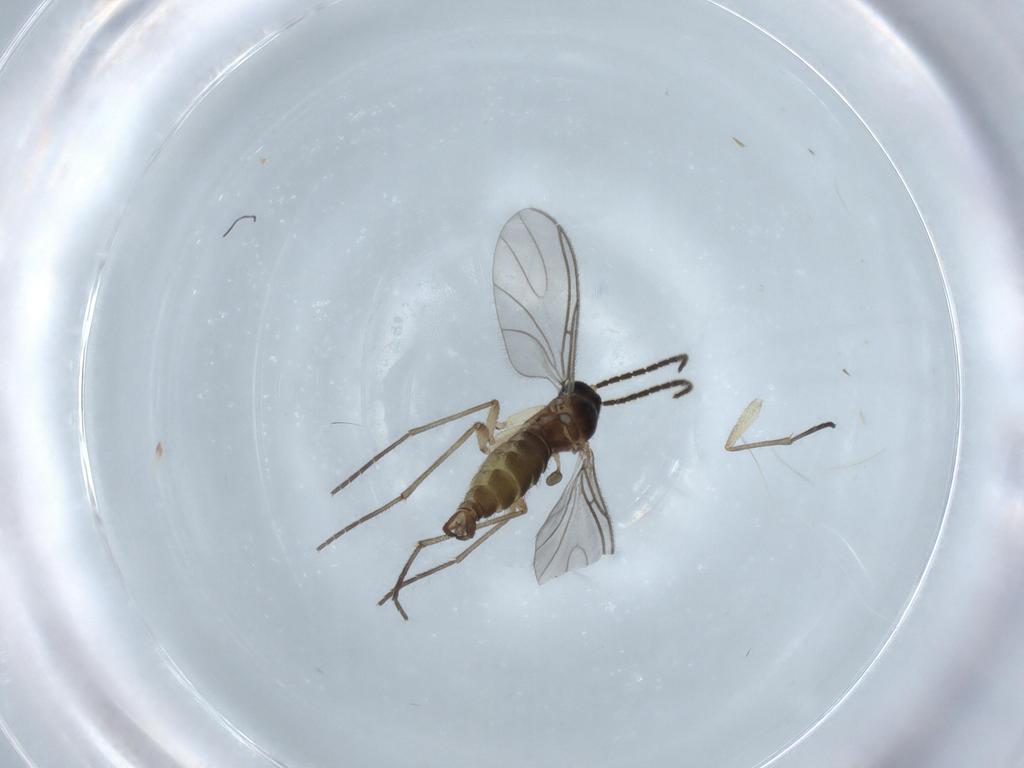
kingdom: Animalia
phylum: Arthropoda
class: Insecta
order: Diptera
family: Sciaridae
